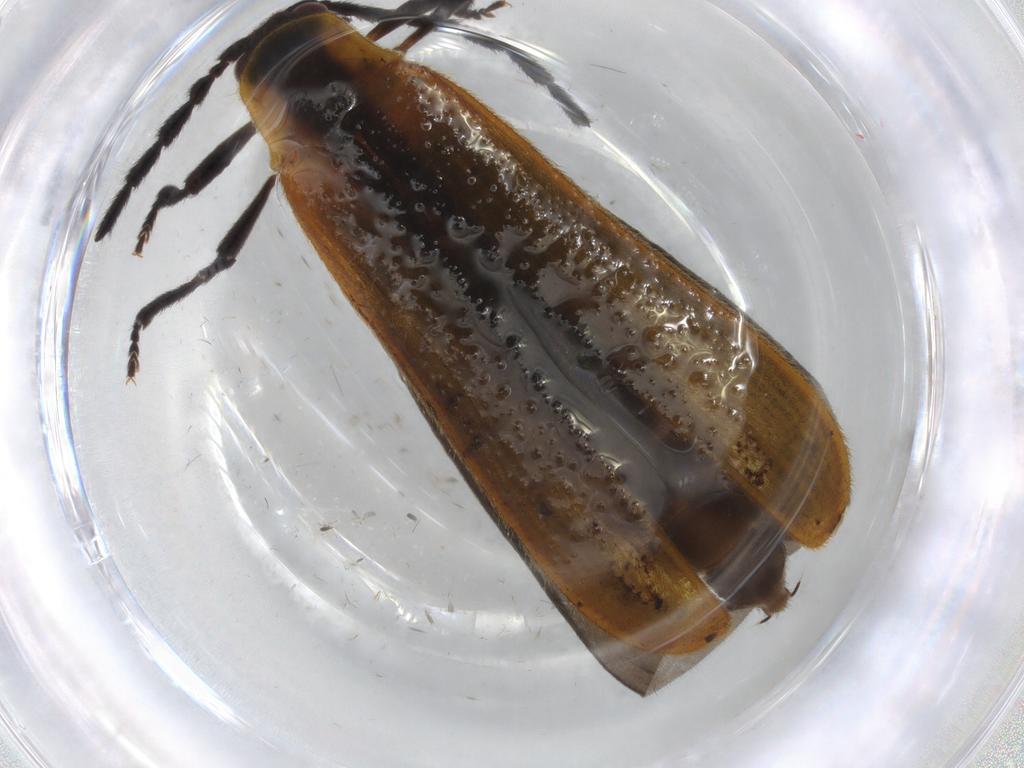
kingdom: Animalia
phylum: Arthropoda
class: Insecta
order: Coleoptera
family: Lycidae
